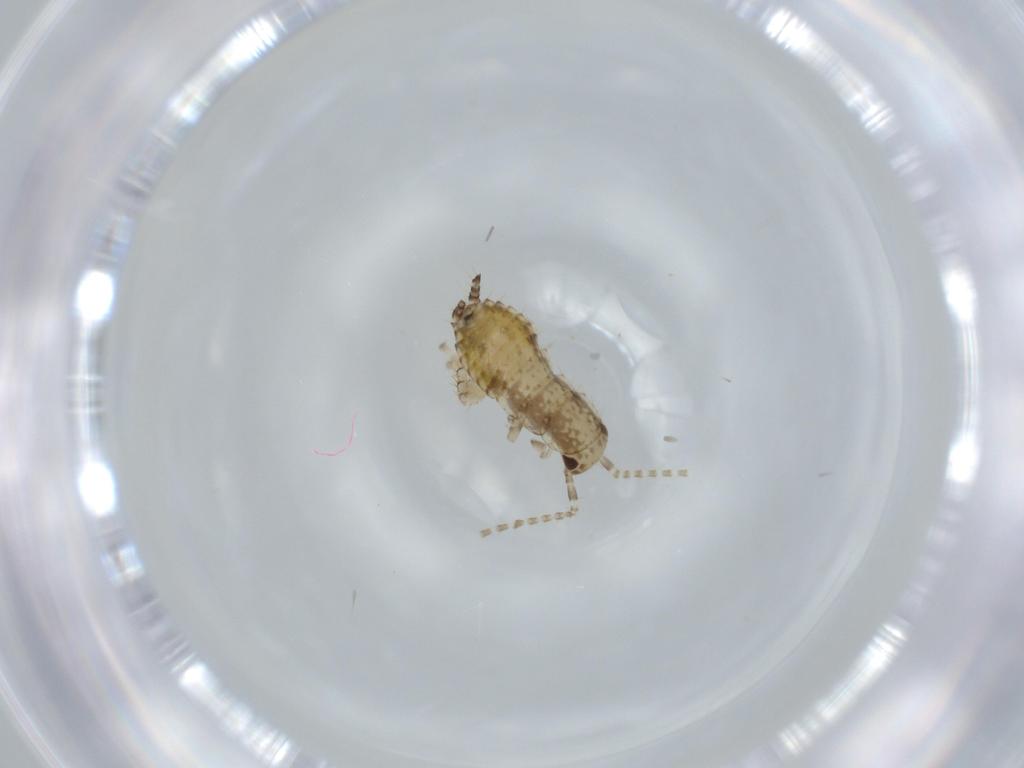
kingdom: Animalia
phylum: Arthropoda
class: Insecta
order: Blattodea
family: Ectobiidae
